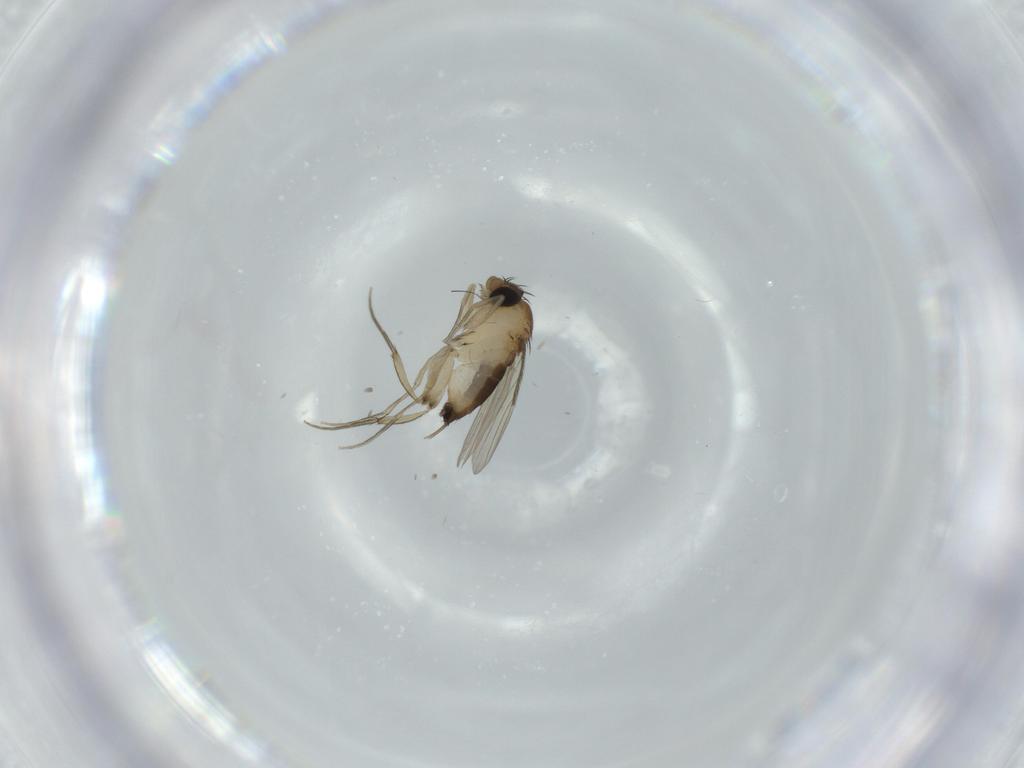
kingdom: Animalia
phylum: Arthropoda
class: Insecta
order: Diptera
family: Phoridae
